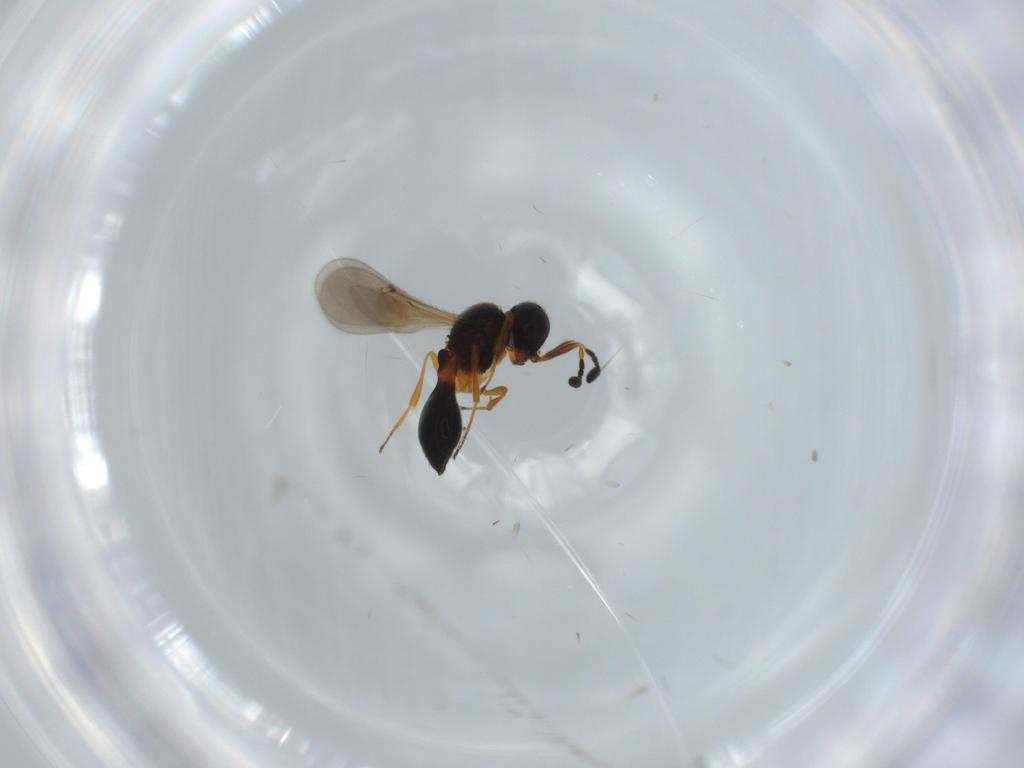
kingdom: Animalia
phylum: Arthropoda
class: Insecta
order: Hymenoptera
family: Scelionidae
